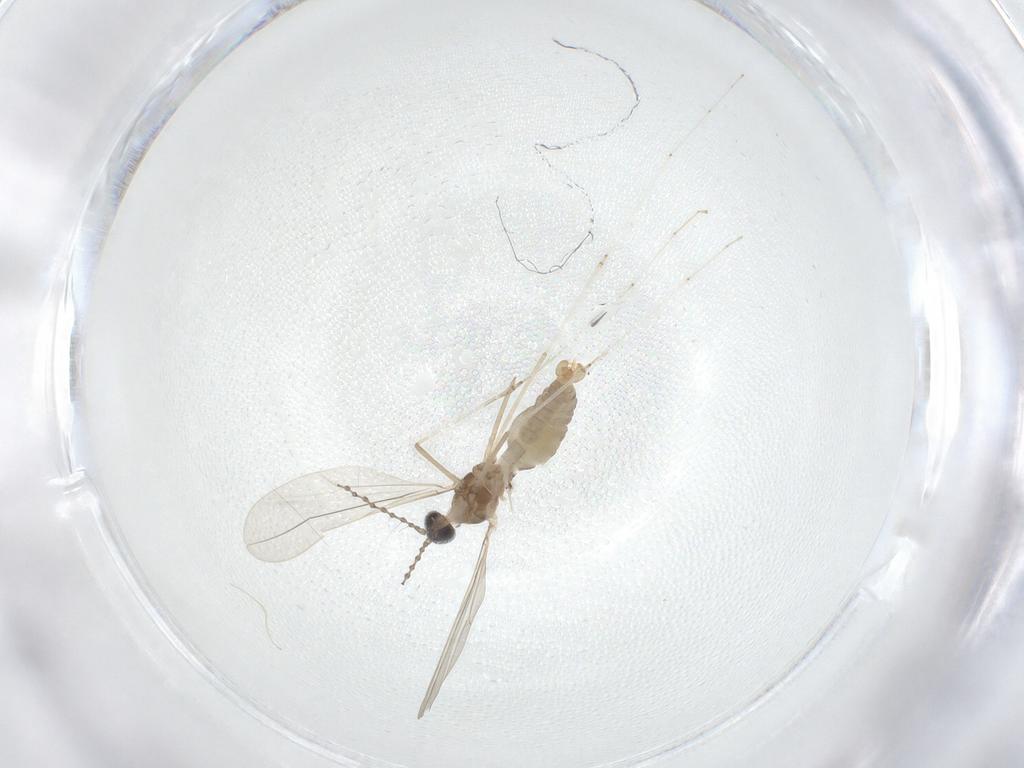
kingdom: Animalia
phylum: Arthropoda
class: Insecta
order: Diptera
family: Cecidomyiidae
